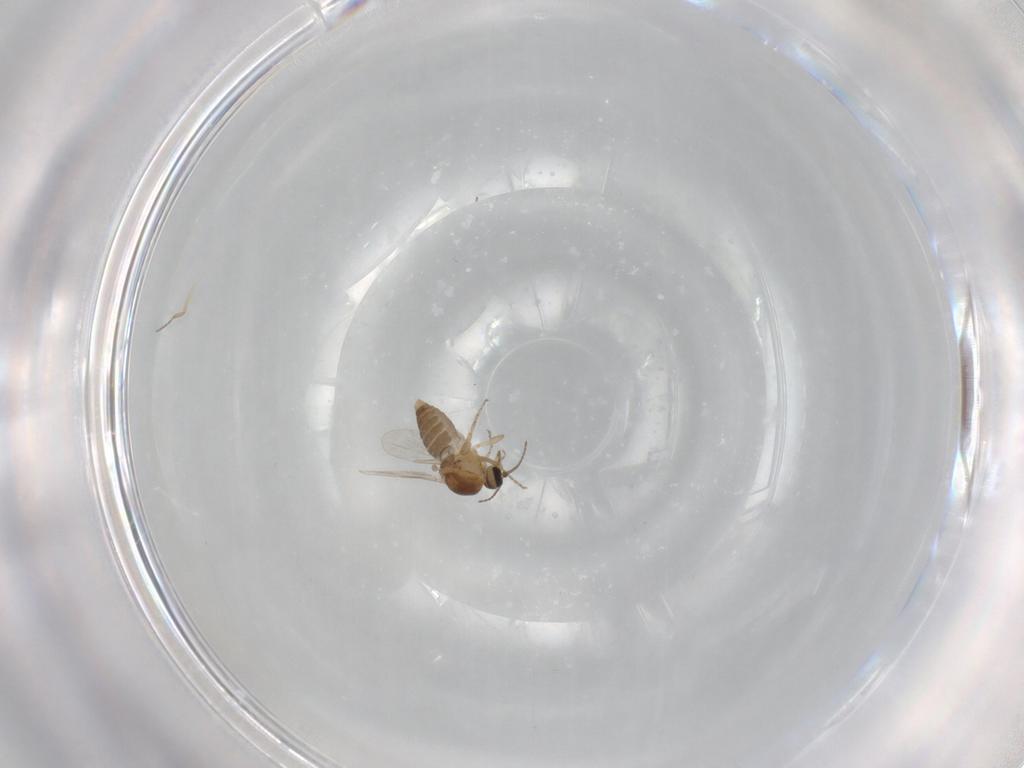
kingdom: Animalia
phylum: Arthropoda
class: Insecta
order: Diptera
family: Ceratopogonidae
